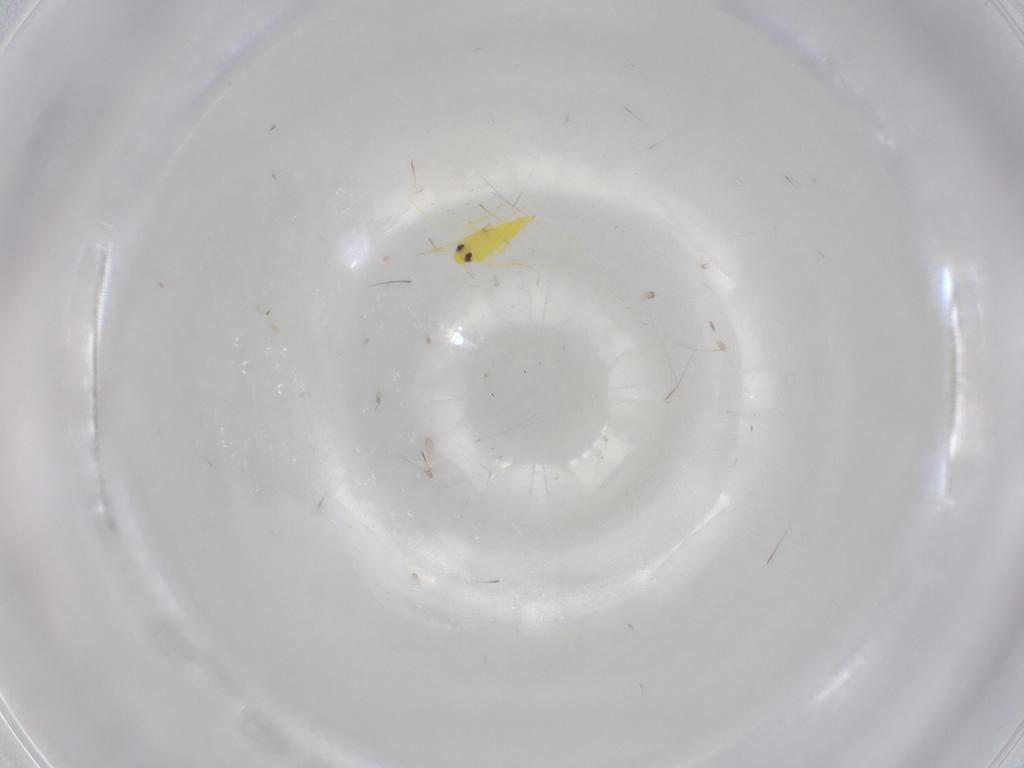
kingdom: Animalia
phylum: Arthropoda
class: Insecta
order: Hemiptera
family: Aleyrodidae
